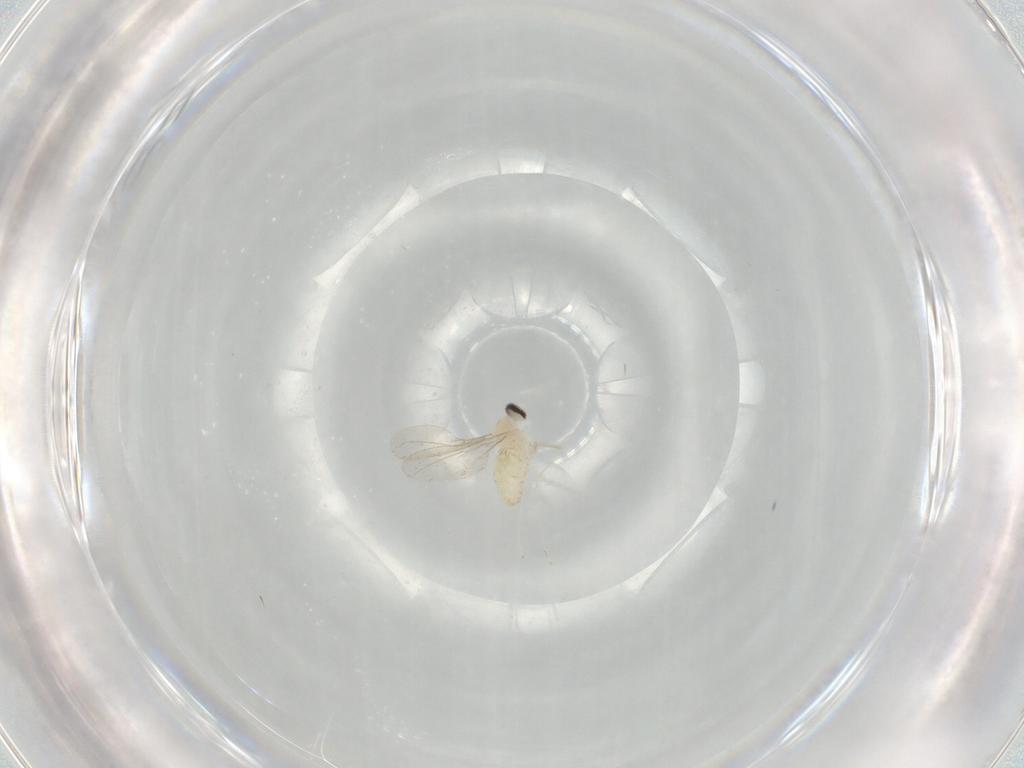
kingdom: Animalia
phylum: Arthropoda
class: Insecta
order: Diptera
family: Cecidomyiidae
